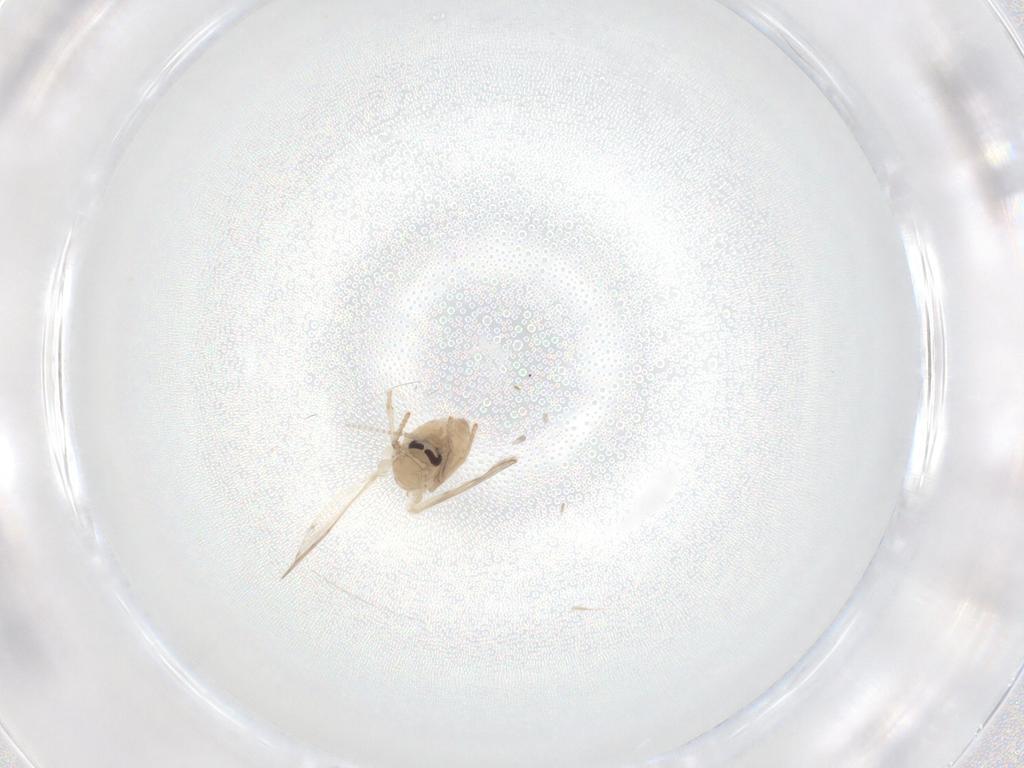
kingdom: Animalia
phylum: Arthropoda
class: Insecta
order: Diptera
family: Psychodidae
